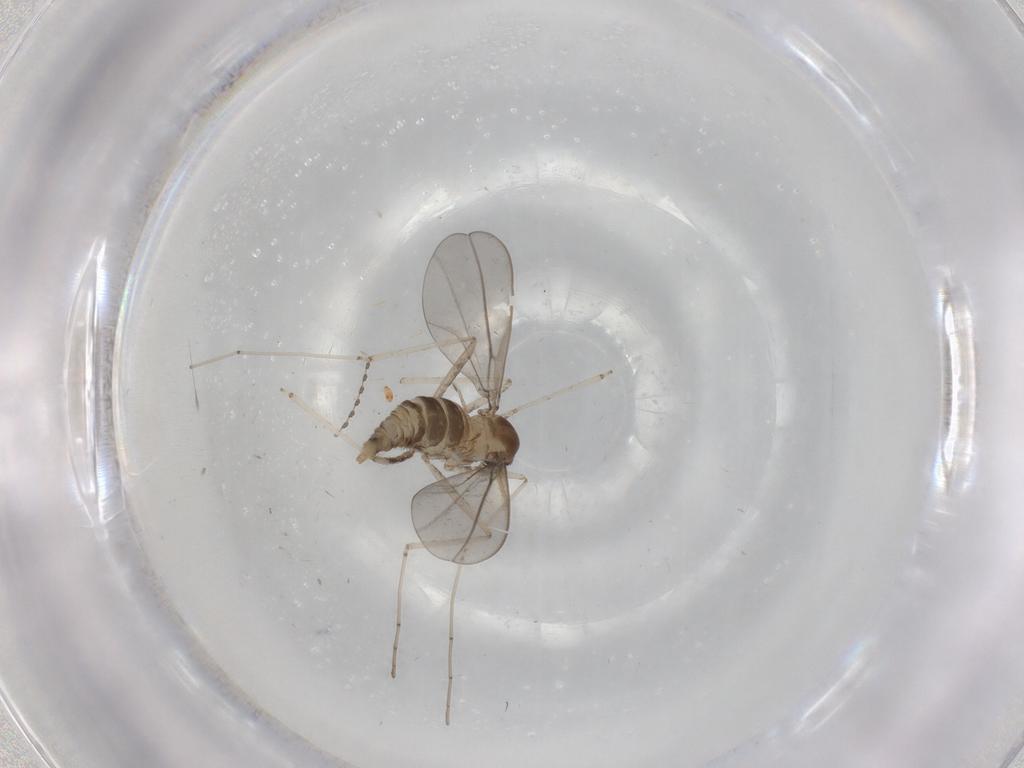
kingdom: Animalia
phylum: Arthropoda
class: Insecta
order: Diptera
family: Cecidomyiidae
